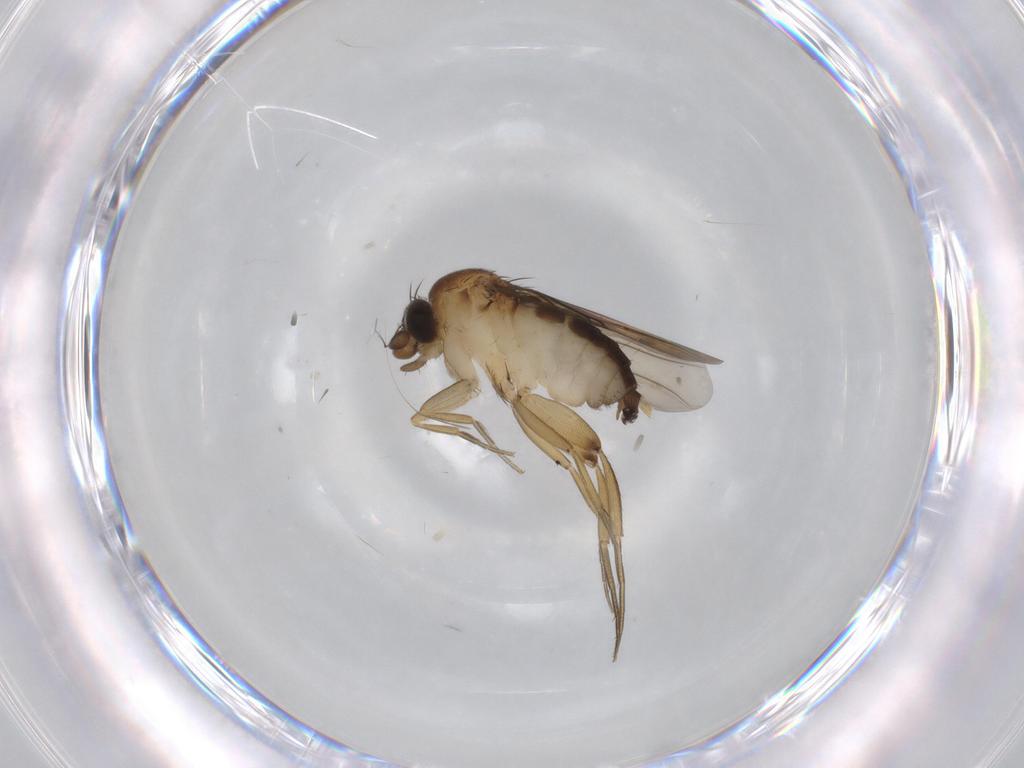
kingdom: Animalia
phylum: Arthropoda
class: Insecta
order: Diptera
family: Phoridae
